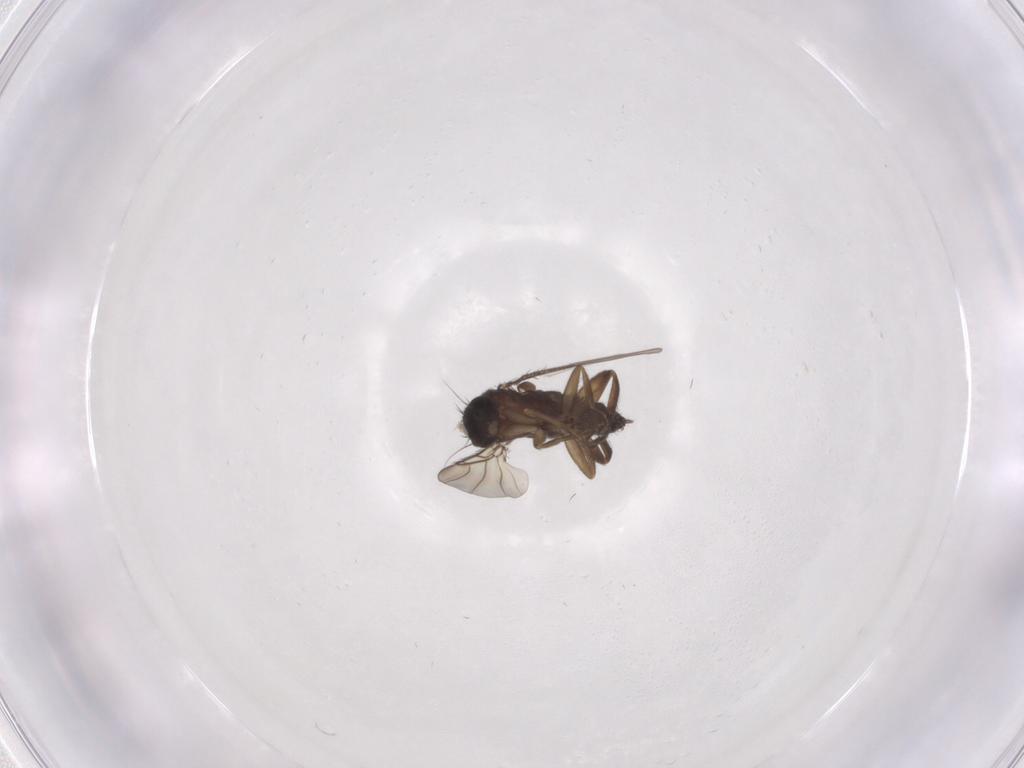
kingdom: Animalia
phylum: Arthropoda
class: Insecta
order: Diptera
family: Phoridae
